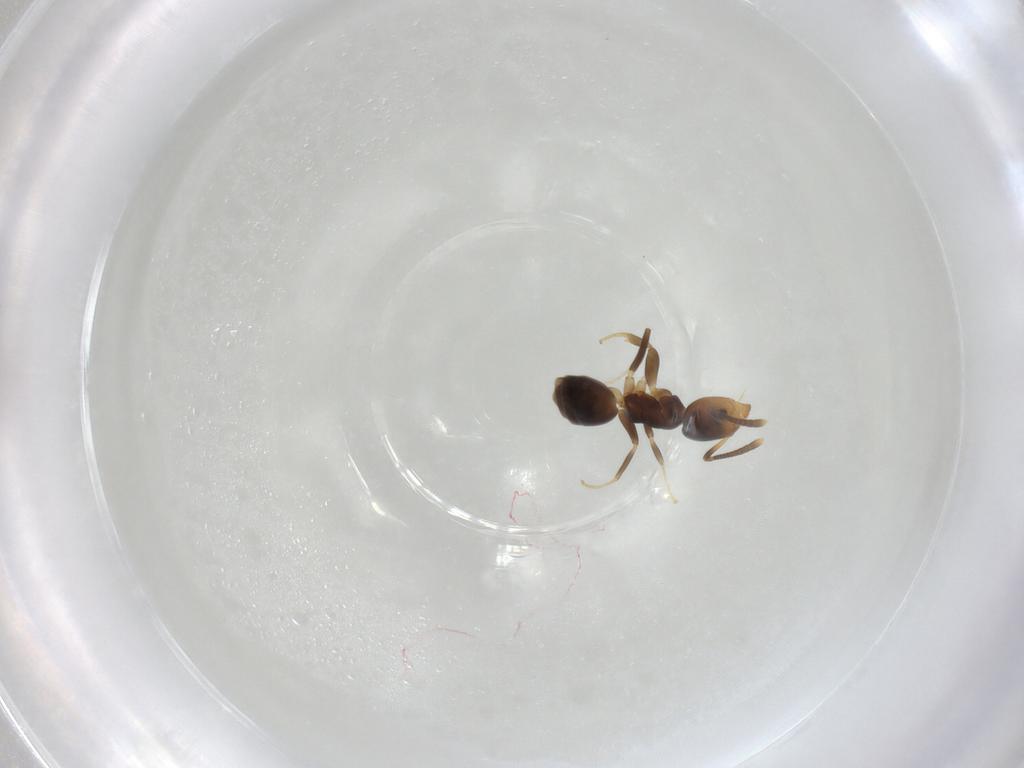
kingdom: Animalia
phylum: Arthropoda
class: Insecta
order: Hymenoptera
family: Formicidae
